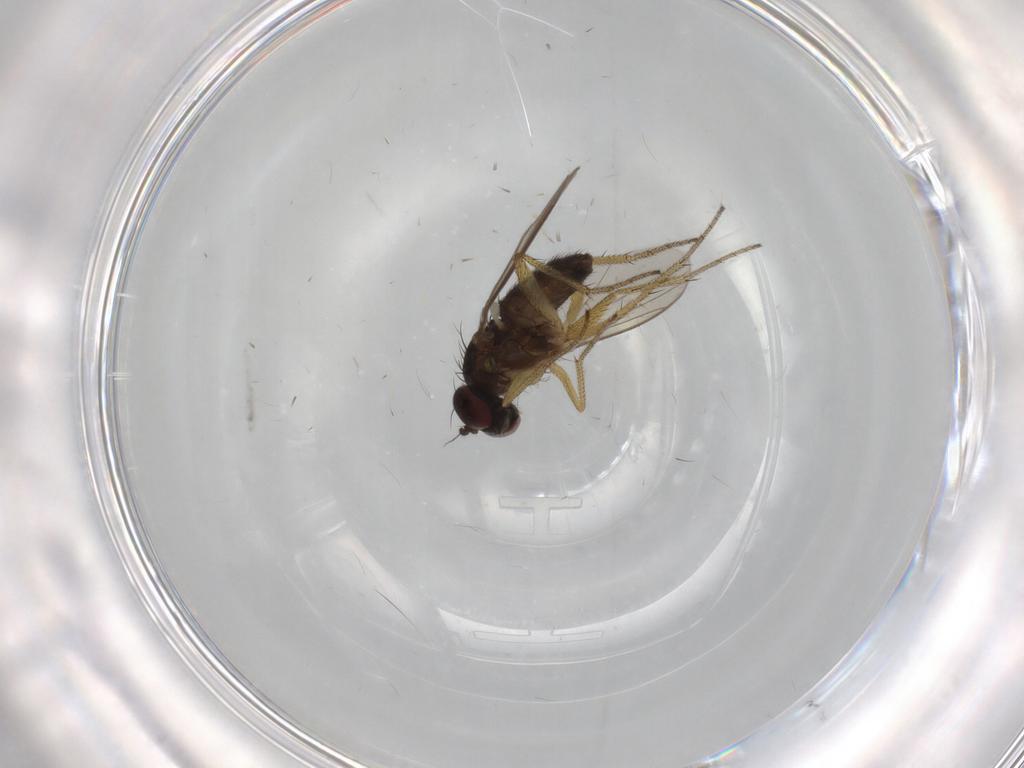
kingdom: Animalia
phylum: Arthropoda
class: Insecta
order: Diptera
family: Dolichopodidae
